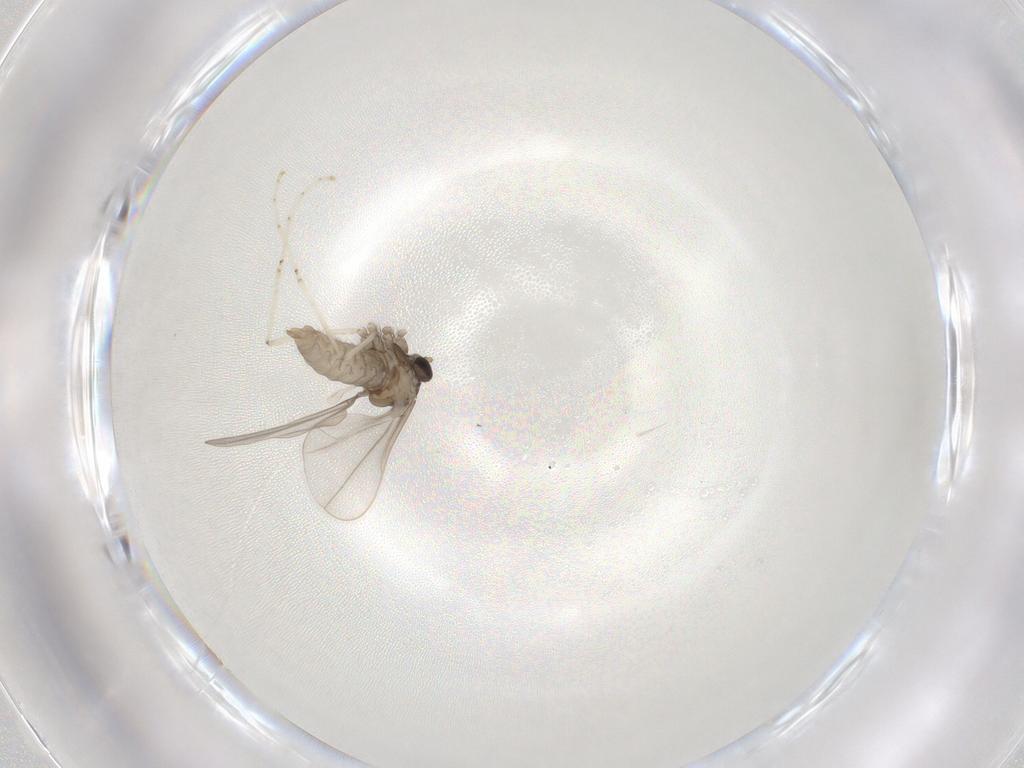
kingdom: Animalia
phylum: Arthropoda
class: Insecta
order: Diptera
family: Cecidomyiidae
